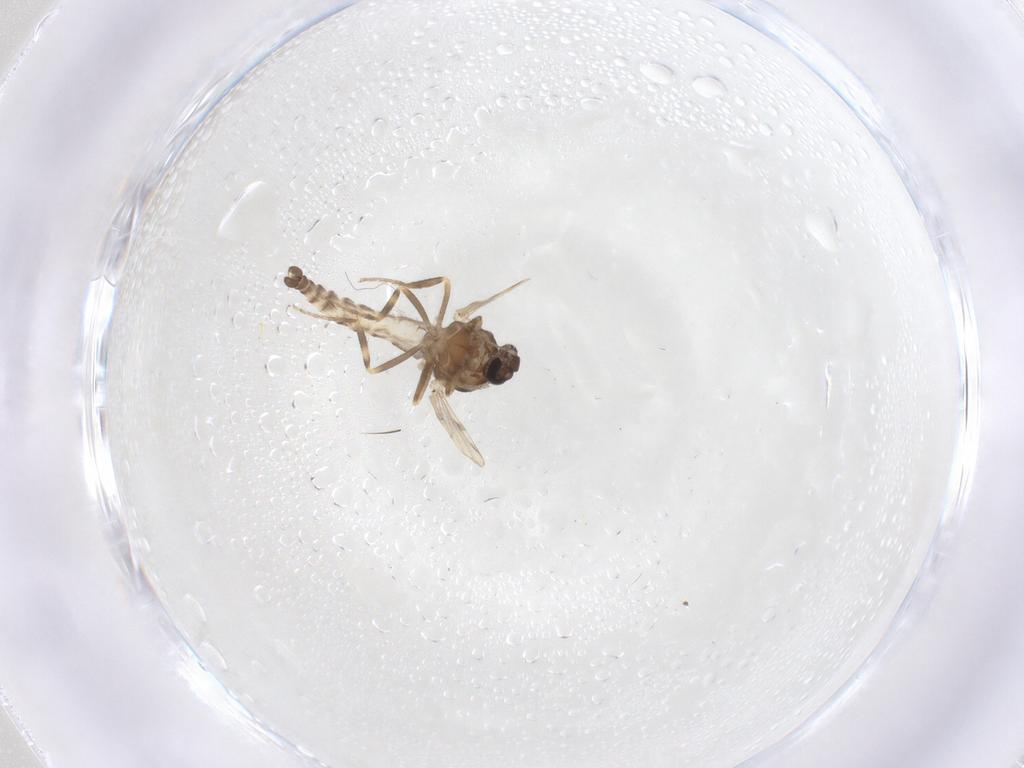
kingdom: Animalia
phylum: Arthropoda
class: Insecta
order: Diptera
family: Ceratopogonidae
